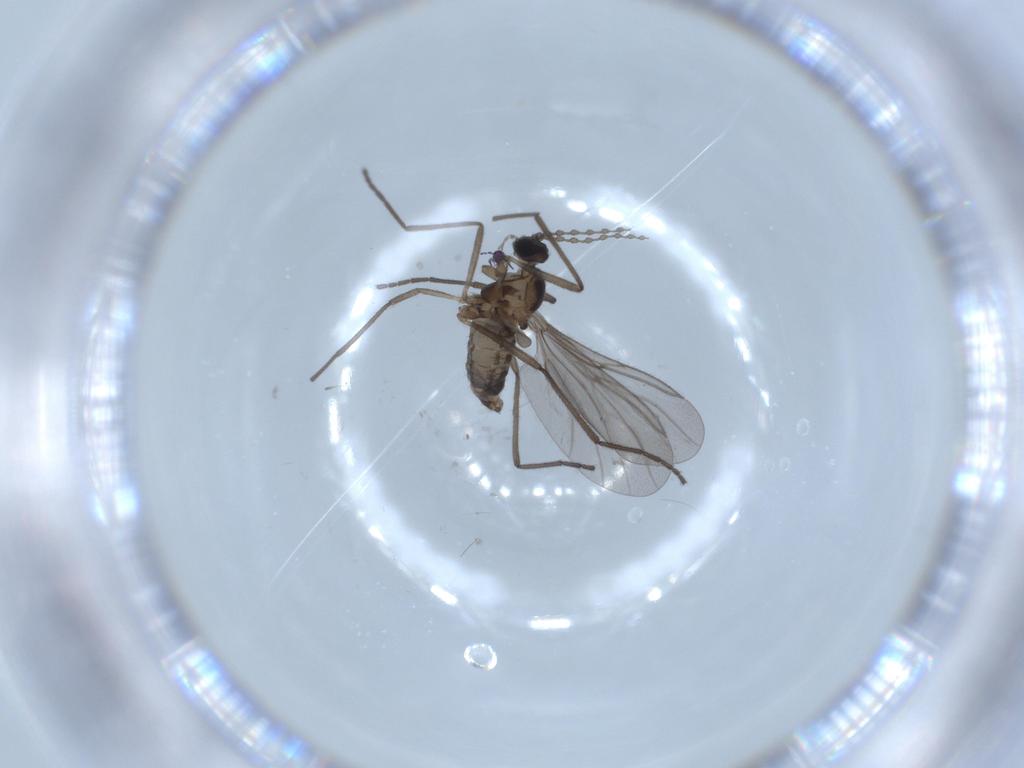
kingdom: Animalia
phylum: Arthropoda
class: Insecta
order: Diptera
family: Cecidomyiidae
